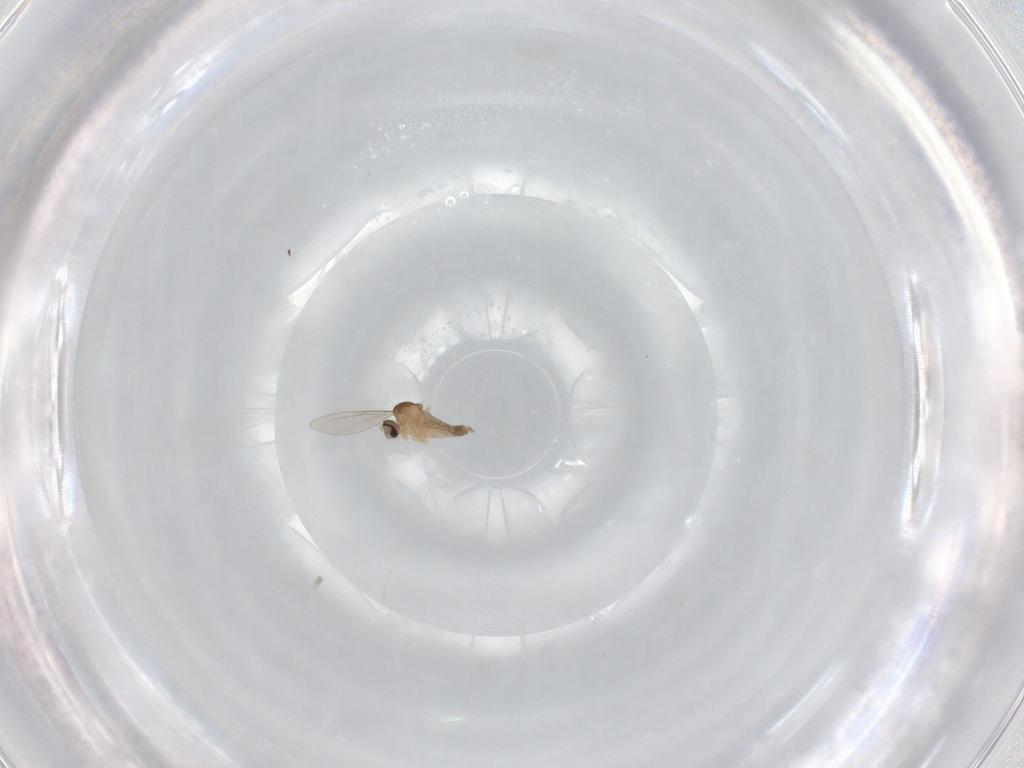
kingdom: Animalia
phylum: Arthropoda
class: Insecta
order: Diptera
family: Cecidomyiidae
